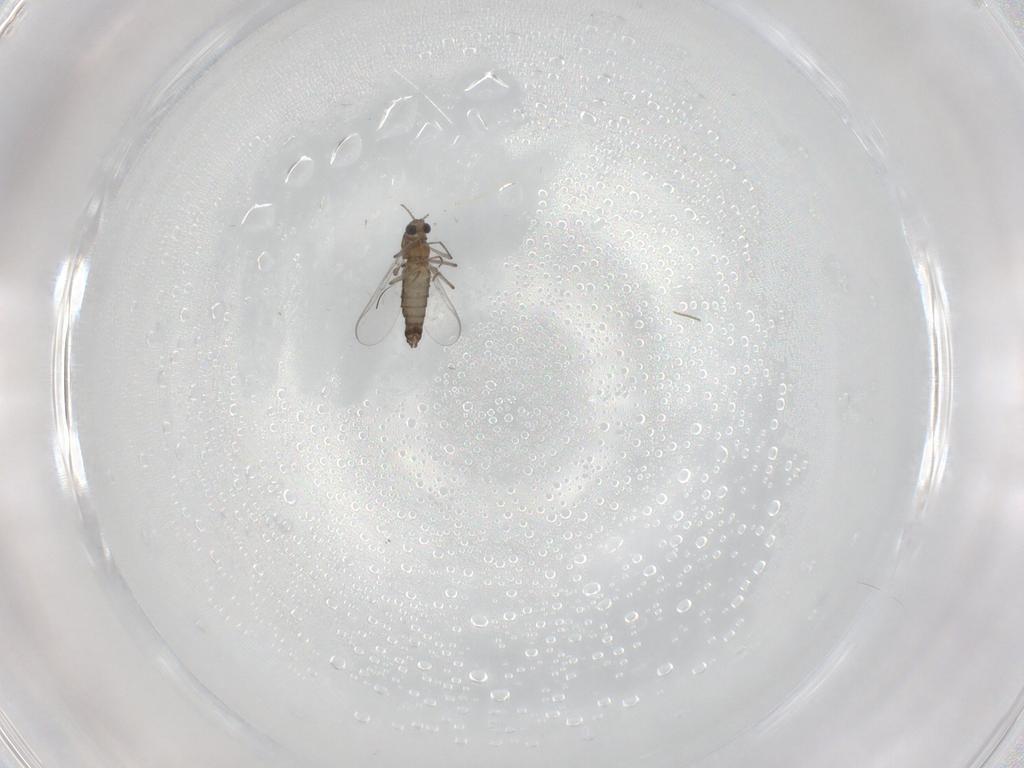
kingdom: Animalia
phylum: Arthropoda
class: Insecta
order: Diptera
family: Chironomidae
